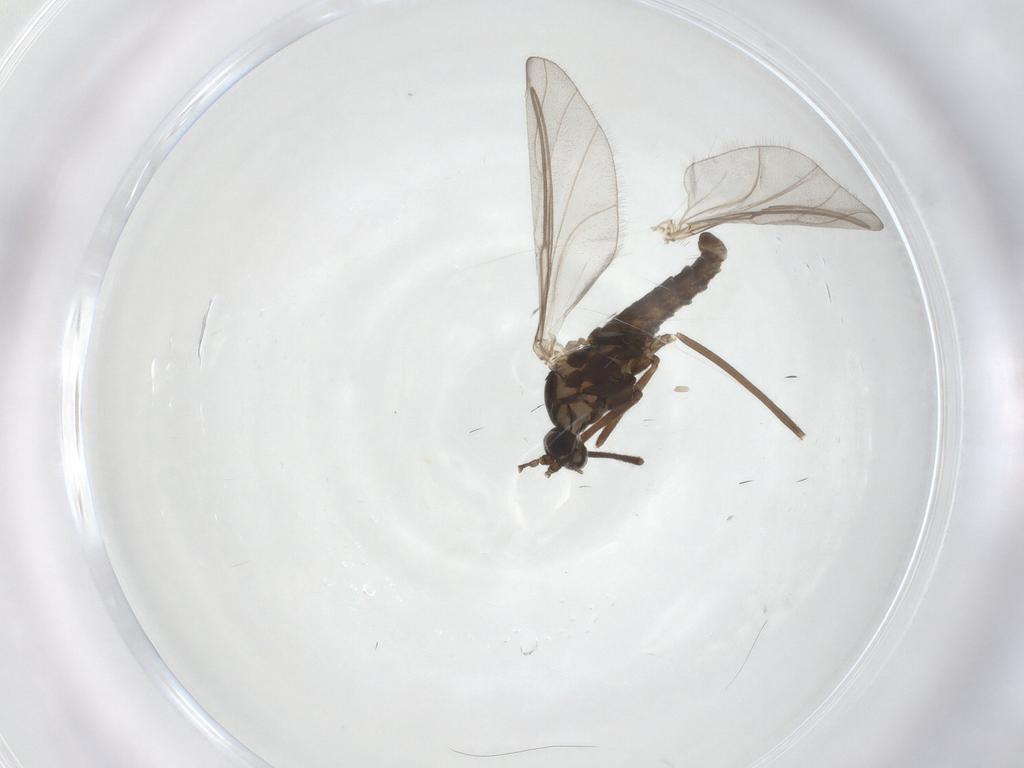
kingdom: Animalia
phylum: Arthropoda
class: Insecta
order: Diptera
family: Cecidomyiidae
